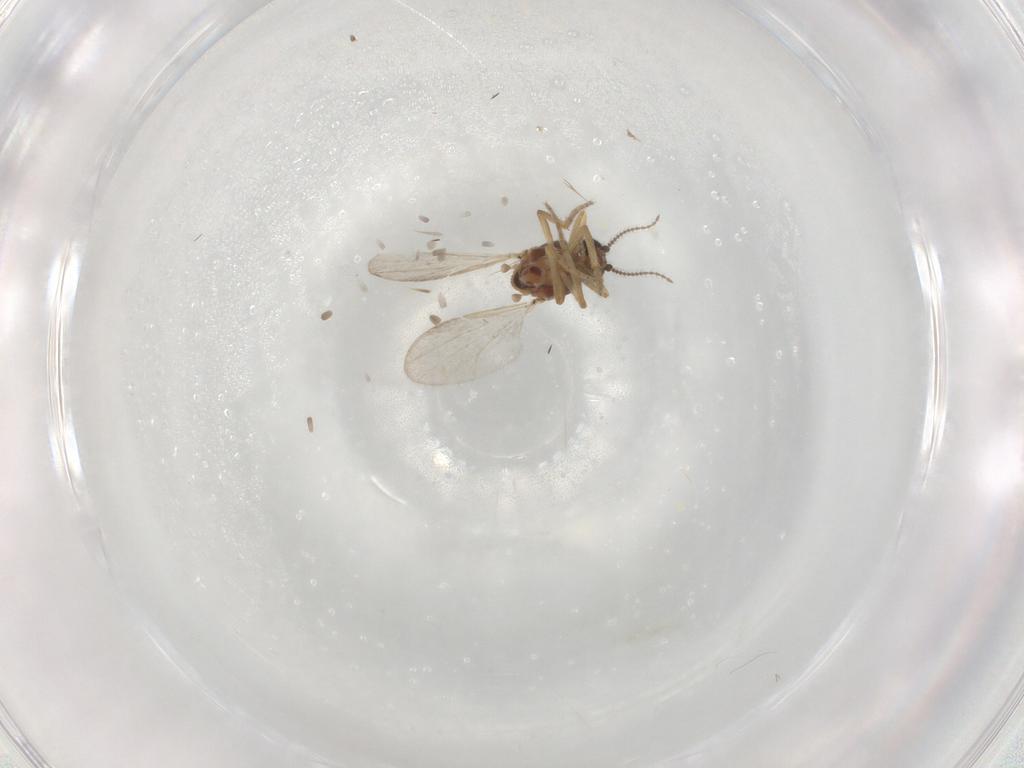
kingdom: Animalia
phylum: Arthropoda
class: Insecta
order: Diptera
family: Ceratopogonidae
